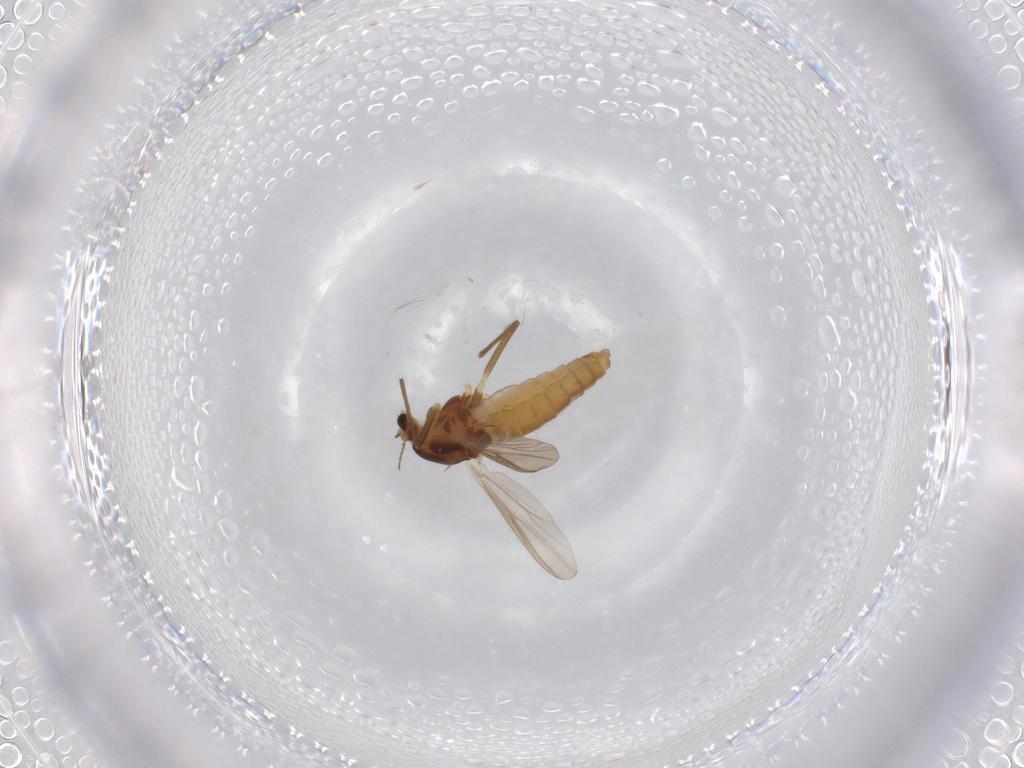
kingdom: Animalia
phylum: Arthropoda
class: Insecta
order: Diptera
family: Chironomidae
